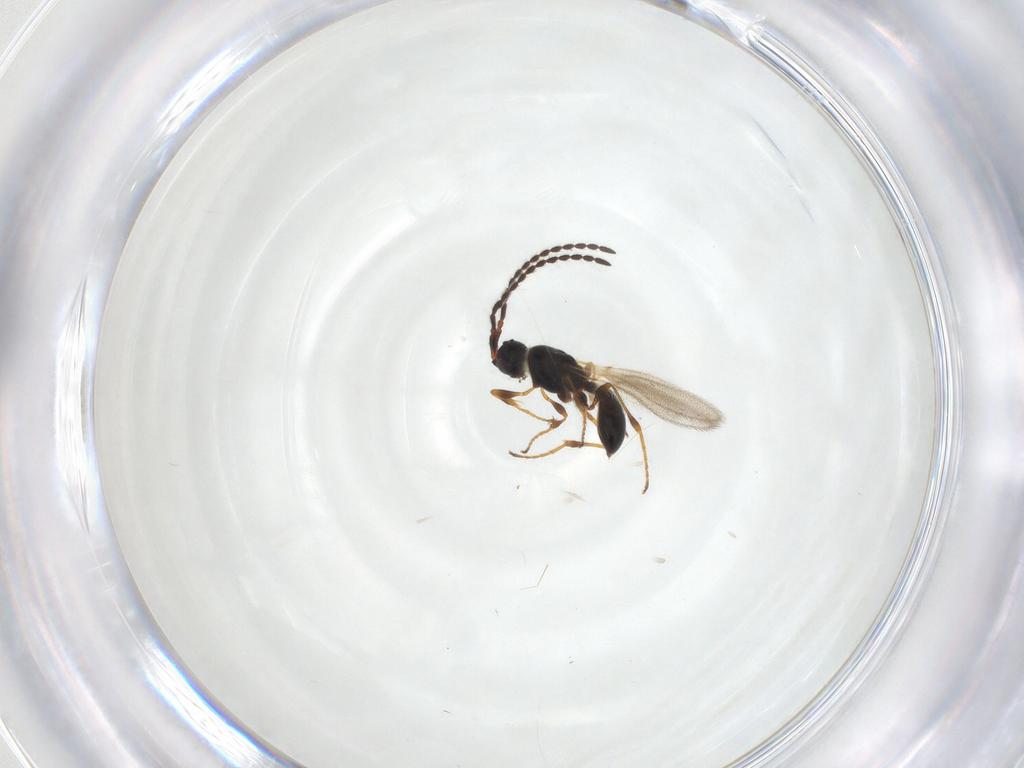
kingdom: Animalia
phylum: Arthropoda
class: Insecta
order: Hymenoptera
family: Diapriidae
